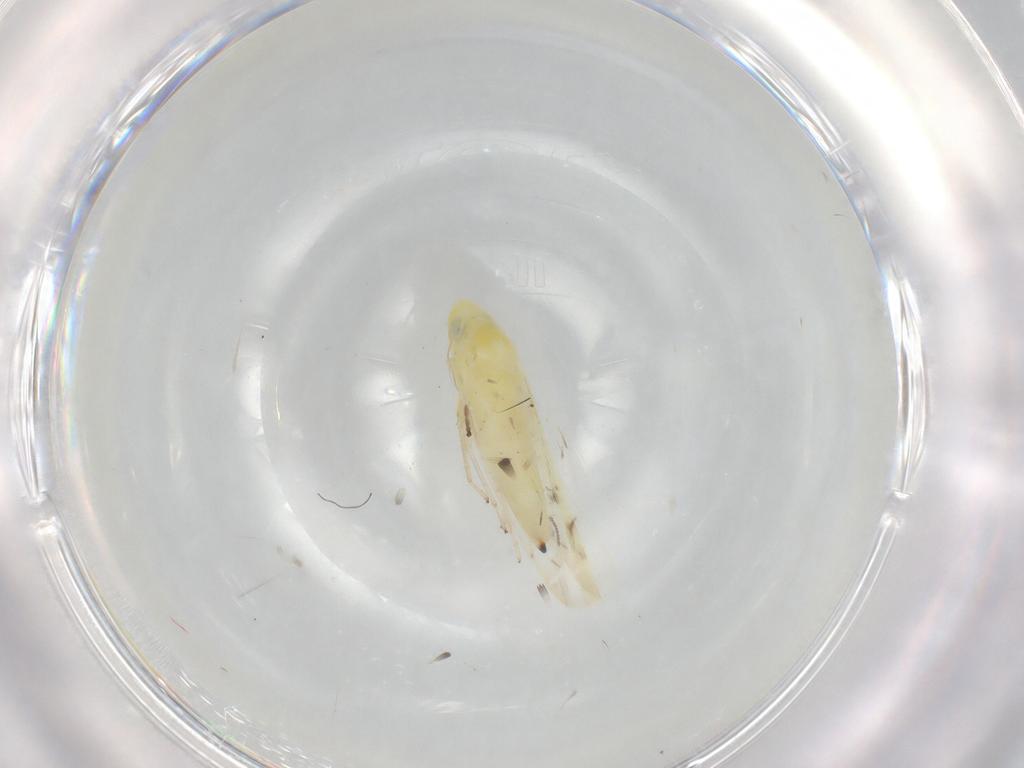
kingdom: Animalia
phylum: Arthropoda
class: Insecta
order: Hemiptera
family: Cicadellidae
